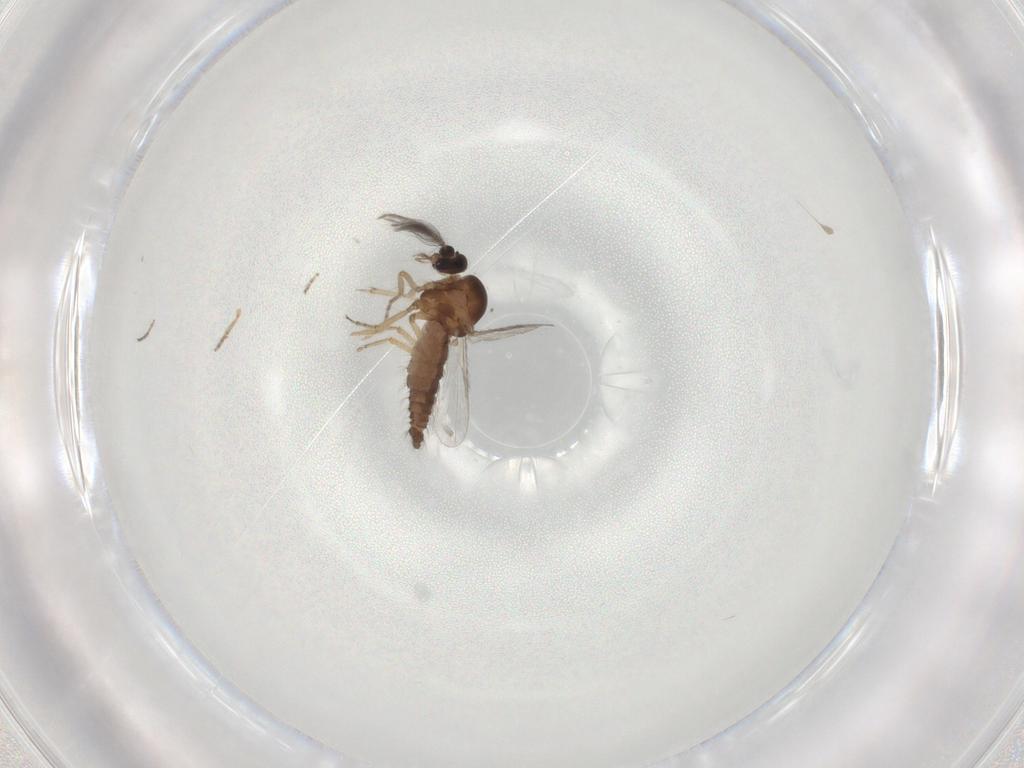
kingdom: Animalia
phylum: Arthropoda
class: Insecta
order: Diptera
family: Ceratopogonidae
